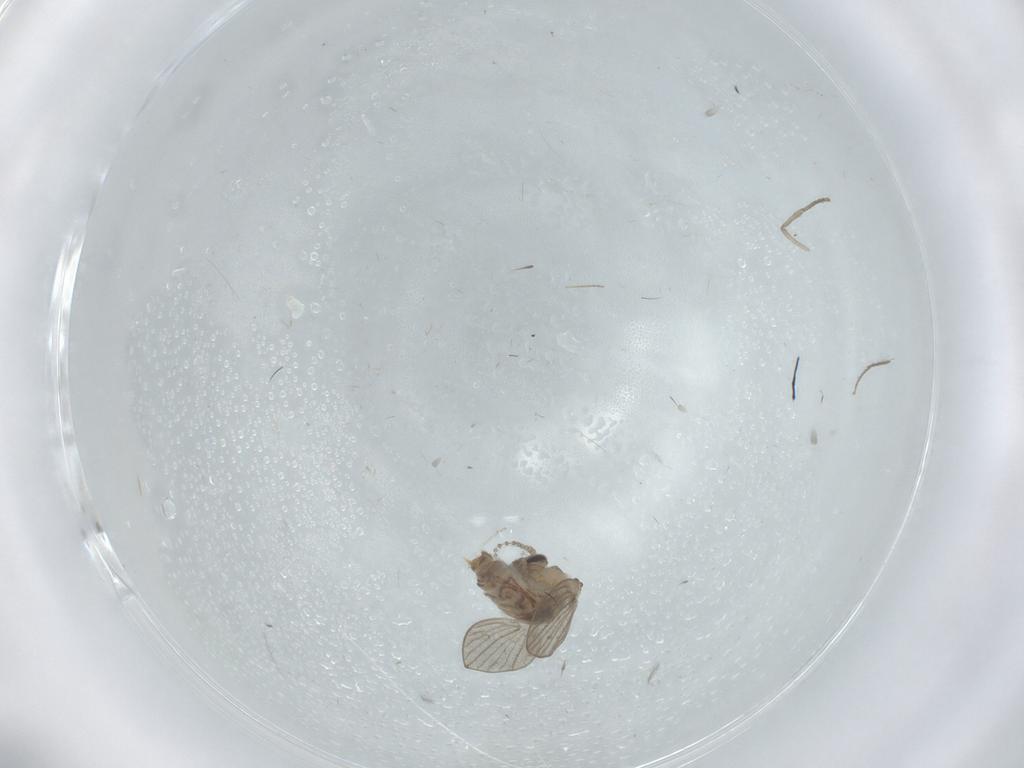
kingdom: Animalia
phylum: Arthropoda
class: Insecta
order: Diptera
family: Psychodidae
